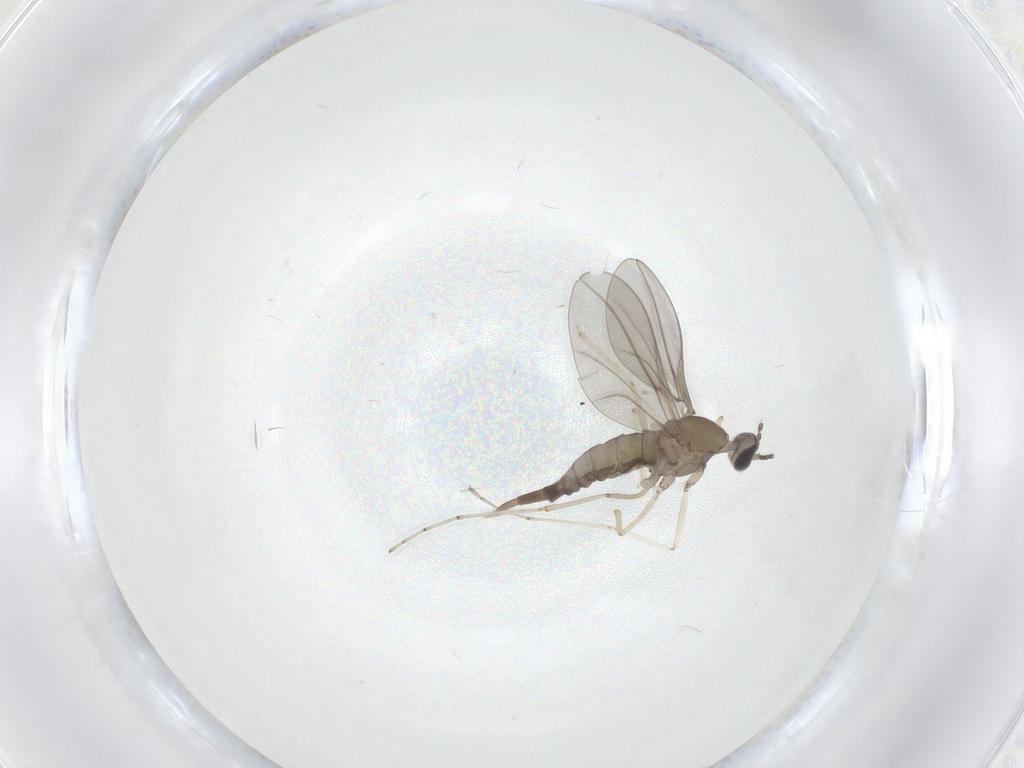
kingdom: Animalia
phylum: Arthropoda
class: Insecta
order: Diptera
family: Cecidomyiidae
